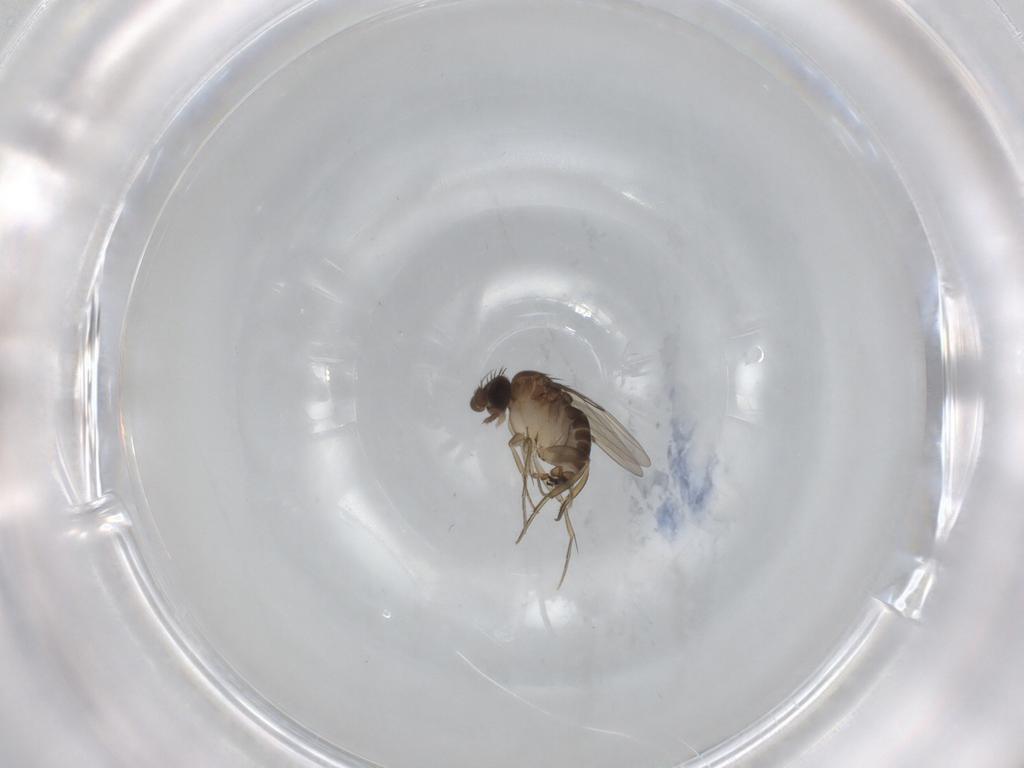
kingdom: Animalia
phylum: Arthropoda
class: Insecta
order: Diptera
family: Phoridae
